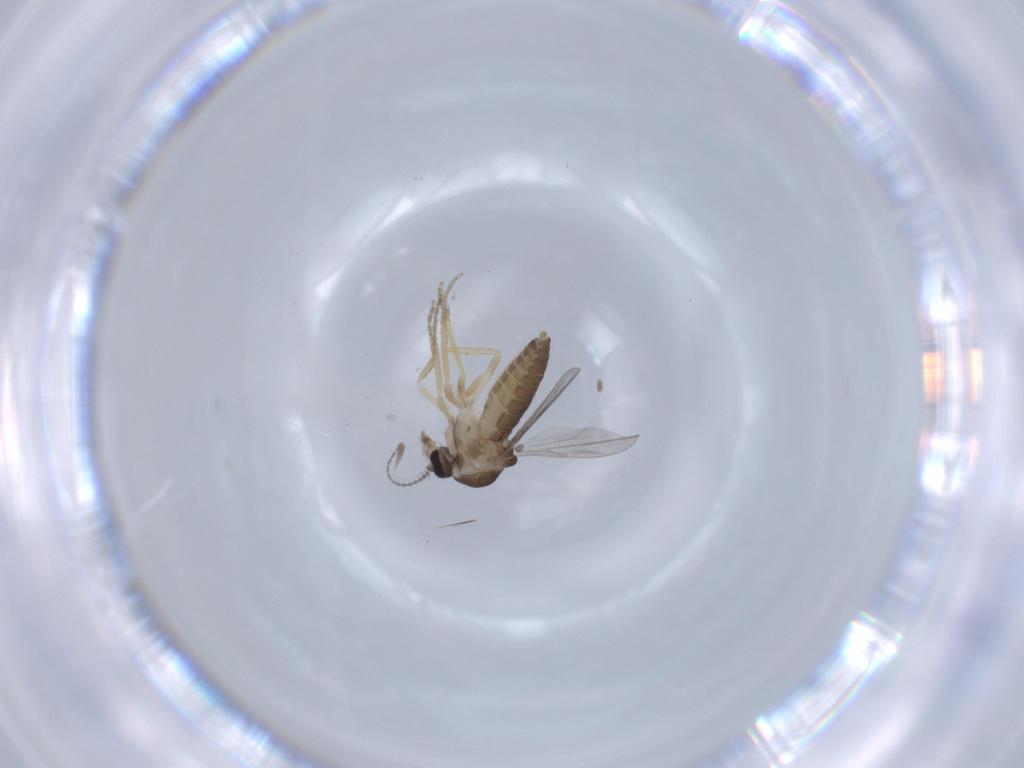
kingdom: Animalia
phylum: Arthropoda
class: Insecta
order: Diptera
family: Ceratopogonidae
